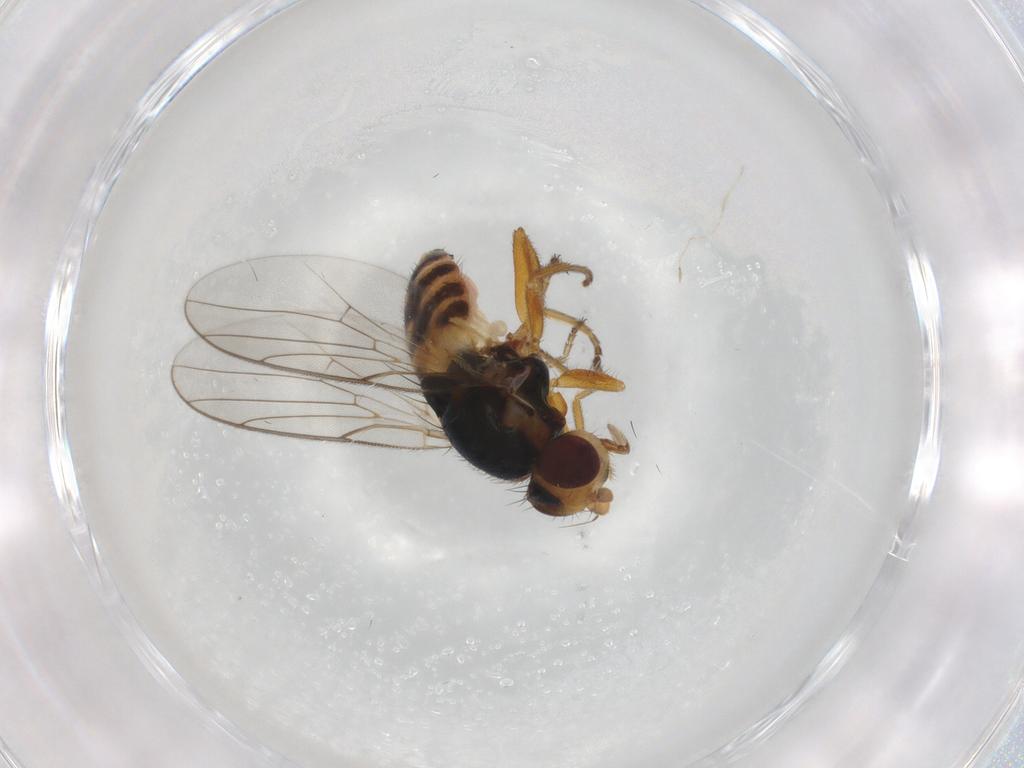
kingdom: Animalia
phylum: Arthropoda
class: Insecta
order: Diptera
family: Chloropidae
